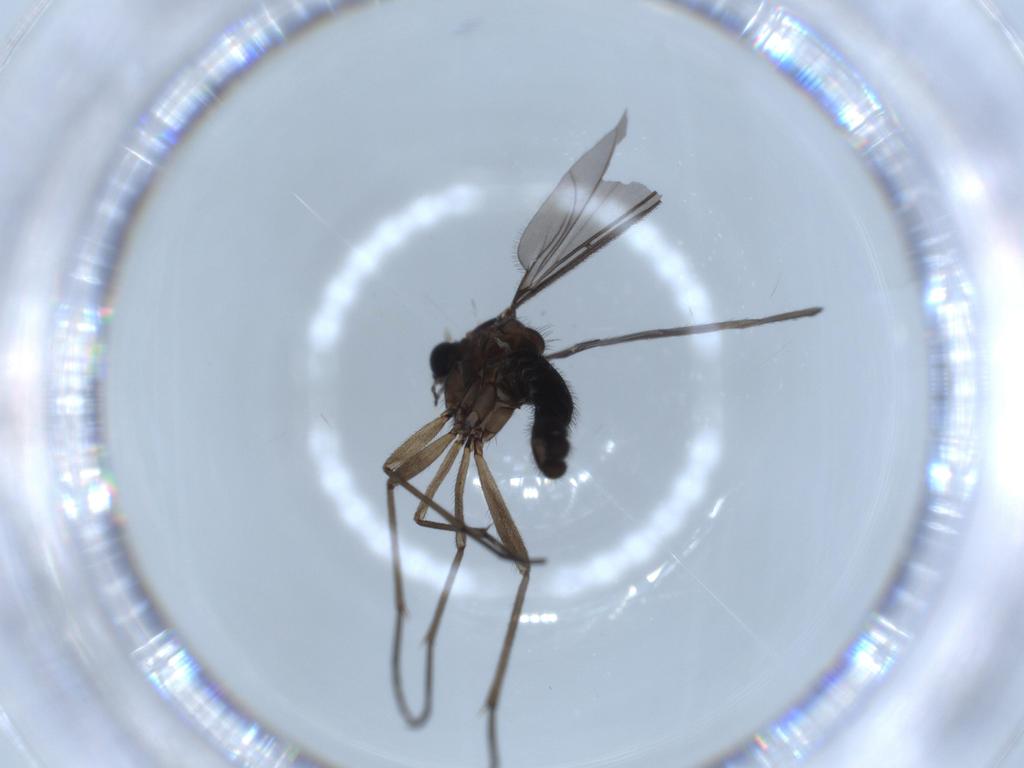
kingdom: Animalia
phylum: Arthropoda
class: Insecta
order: Diptera
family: Sciaridae
